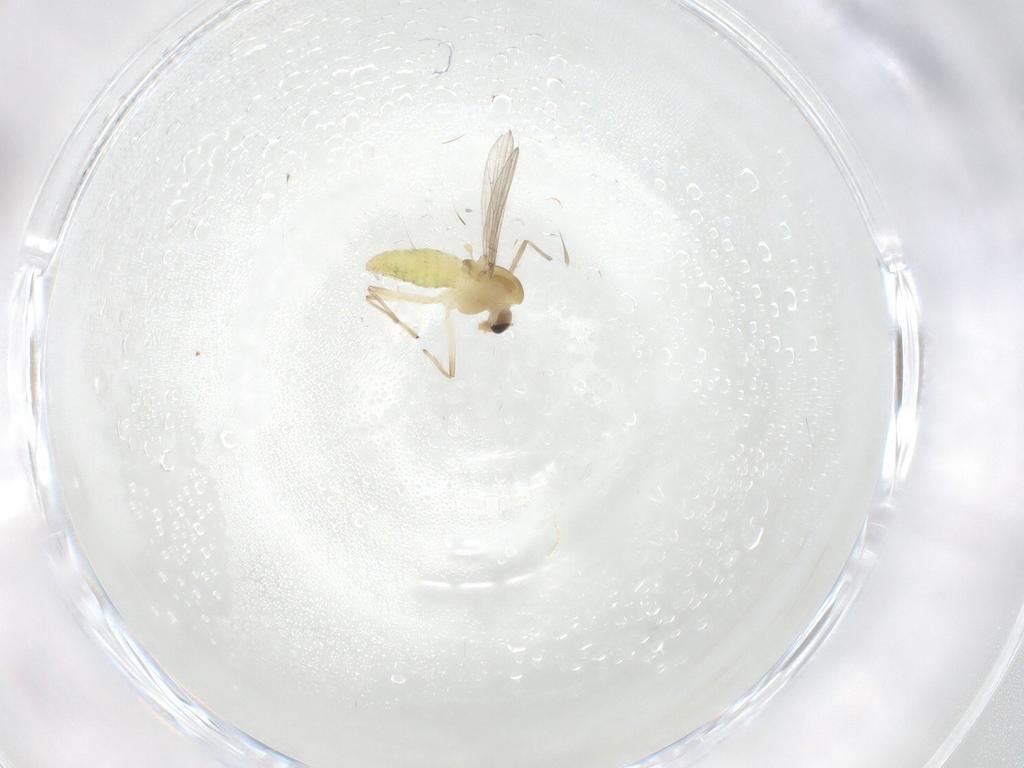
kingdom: Animalia
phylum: Arthropoda
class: Insecta
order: Diptera
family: Chironomidae
